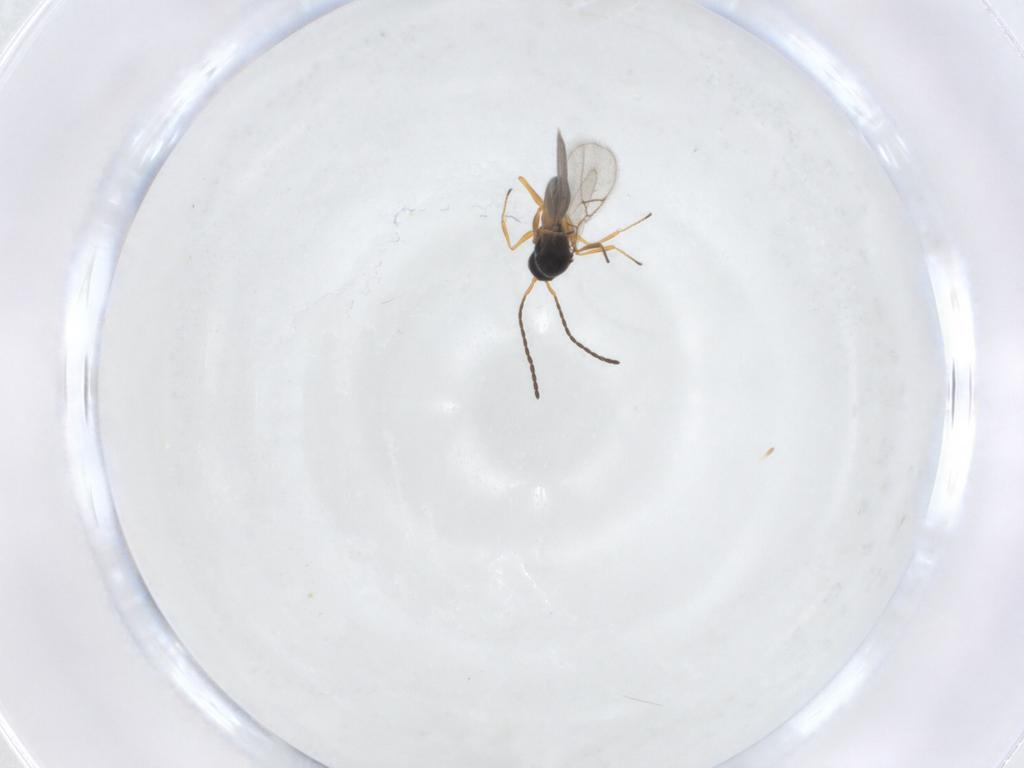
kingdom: Animalia
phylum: Arthropoda
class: Insecta
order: Hymenoptera
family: Figitidae
